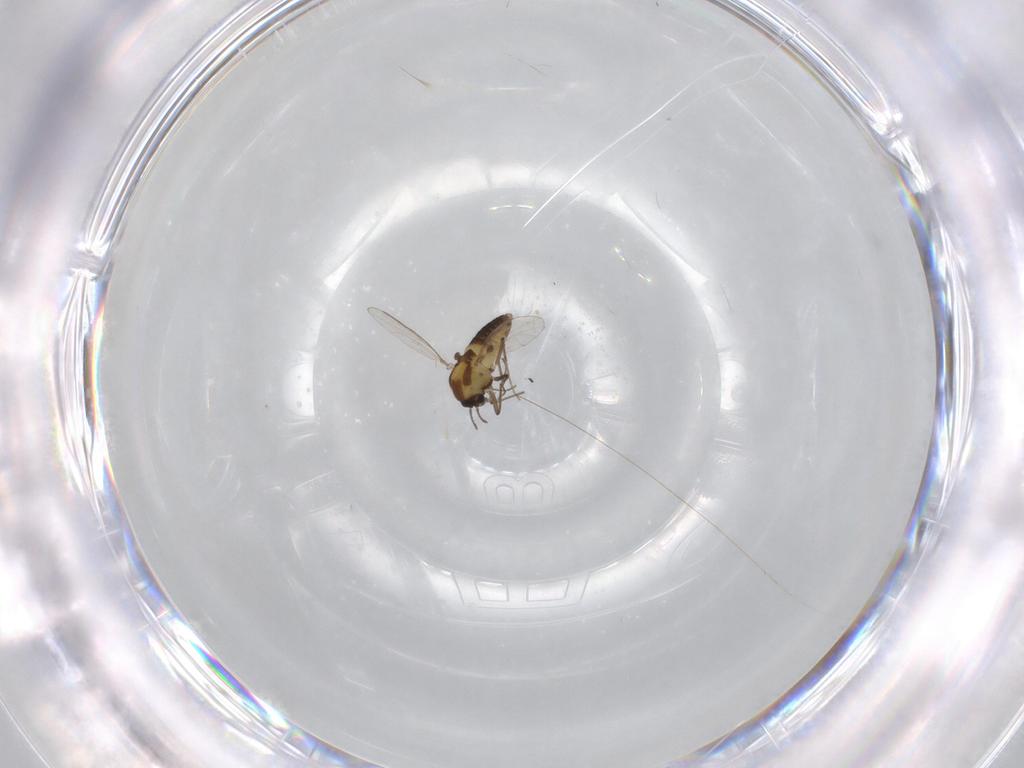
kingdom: Animalia
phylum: Arthropoda
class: Insecta
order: Diptera
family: Chironomidae
